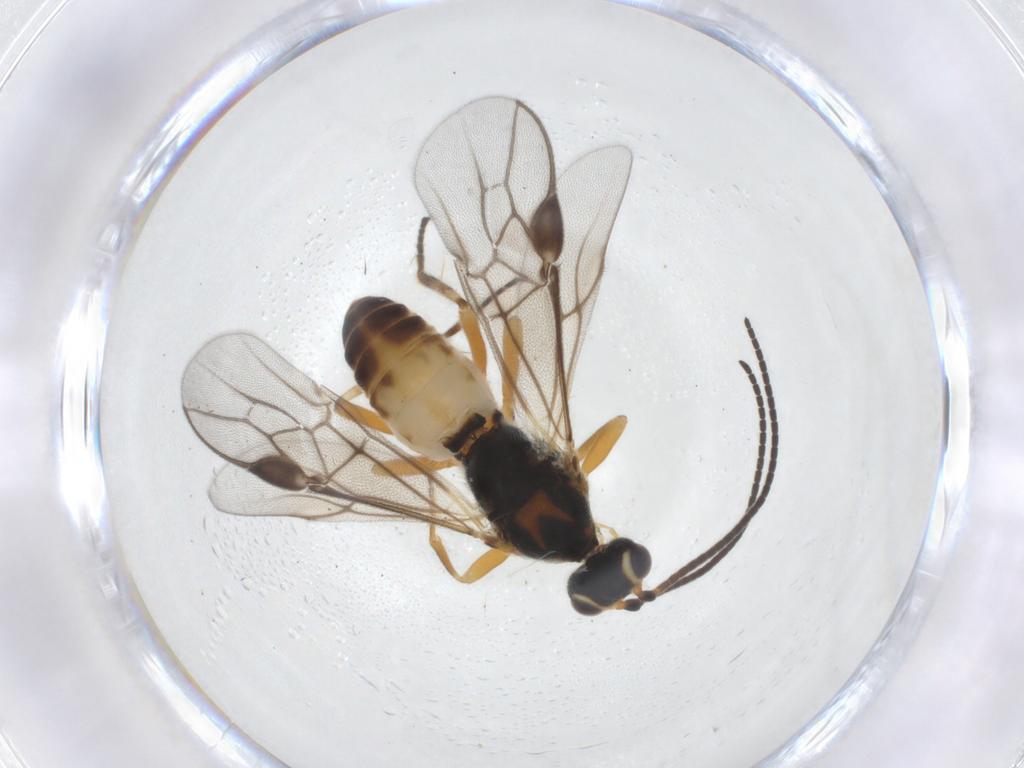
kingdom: Animalia
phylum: Arthropoda
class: Insecta
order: Hymenoptera
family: Braconidae
